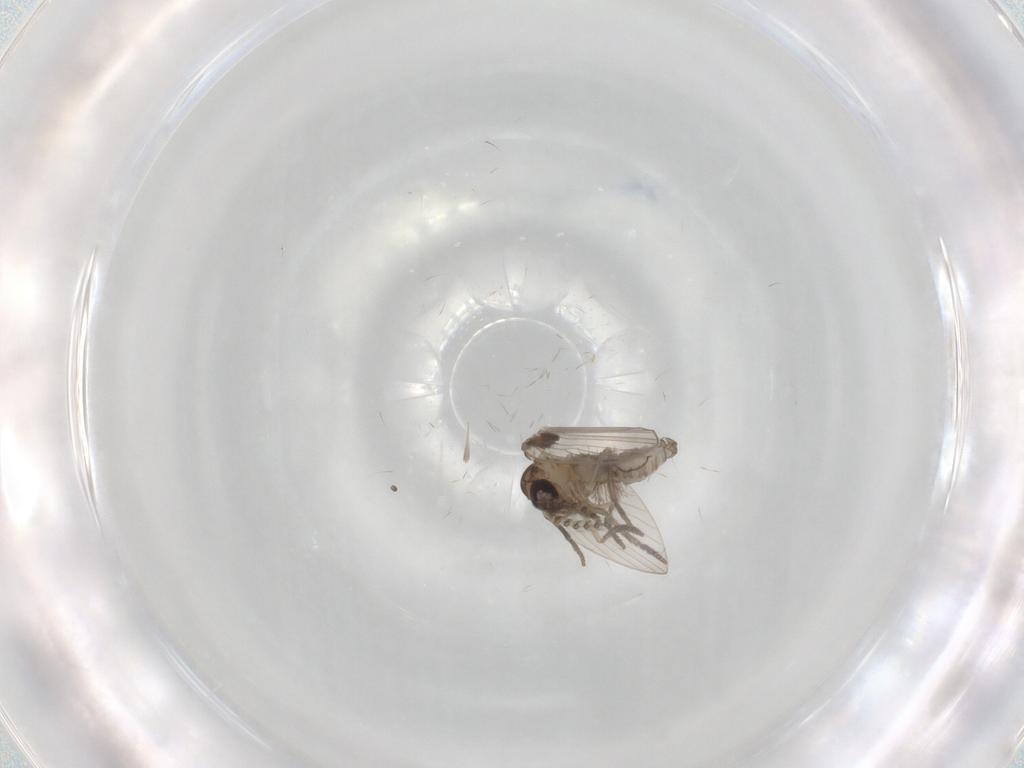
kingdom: Animalia
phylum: Arthropoda
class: Insecta
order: Diptera
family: Psychodidae
